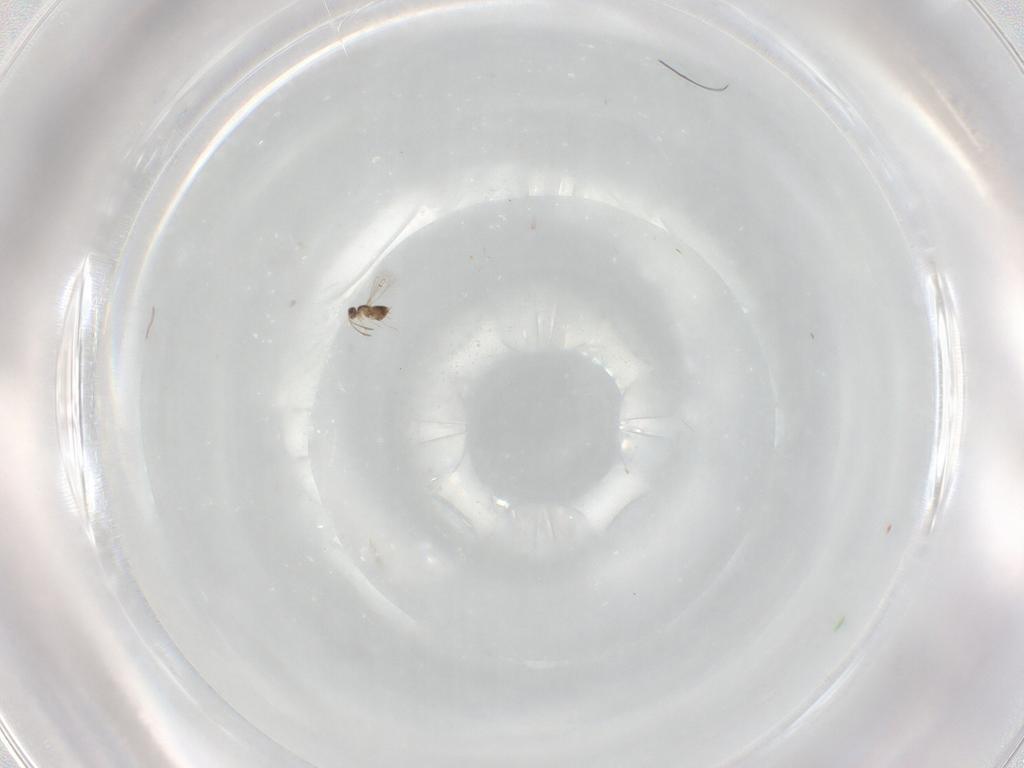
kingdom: Animalia
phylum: Arthropoda
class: Insecta
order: Hymenoptera
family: Mymaridae
